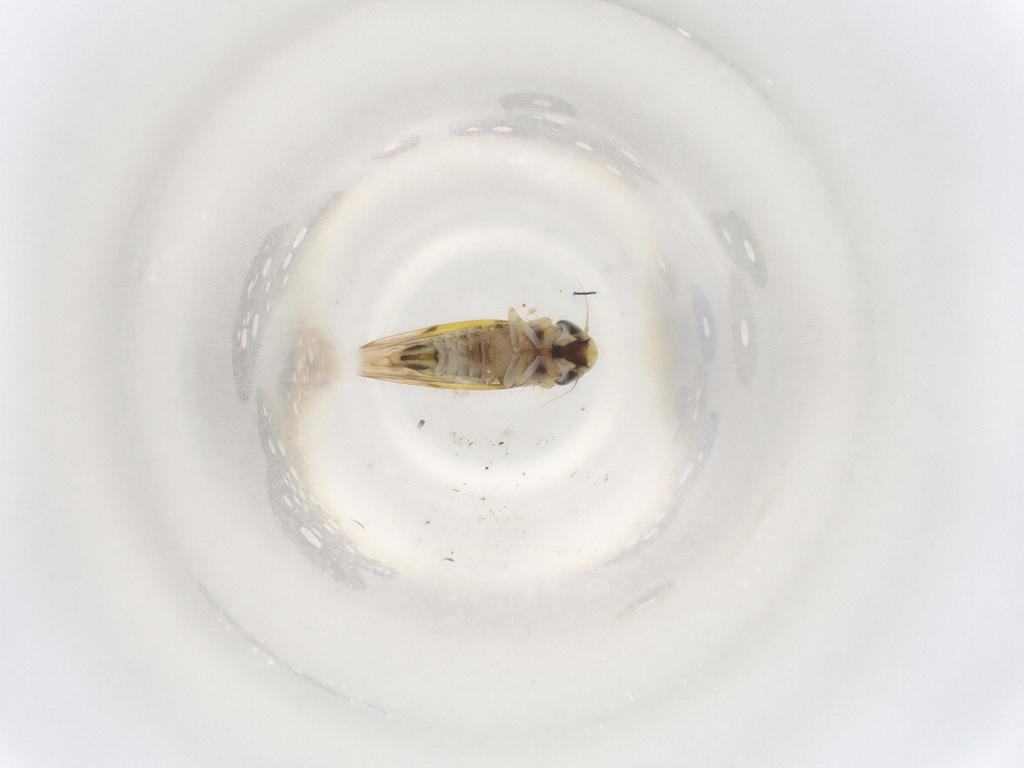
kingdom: Animalia
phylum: Arthropoda
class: Insecta
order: Hemiptera
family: Cicadellidae
